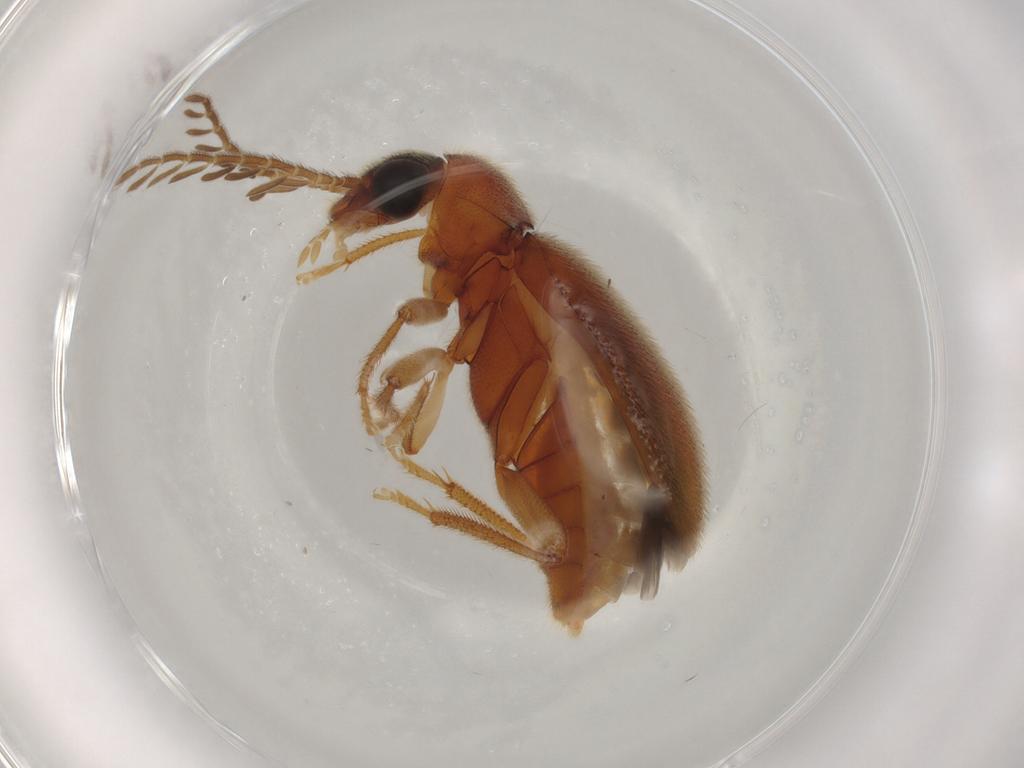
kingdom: Animalia
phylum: Arthropoda
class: Insecta
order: Coleoptera
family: Ptilodactylidae
